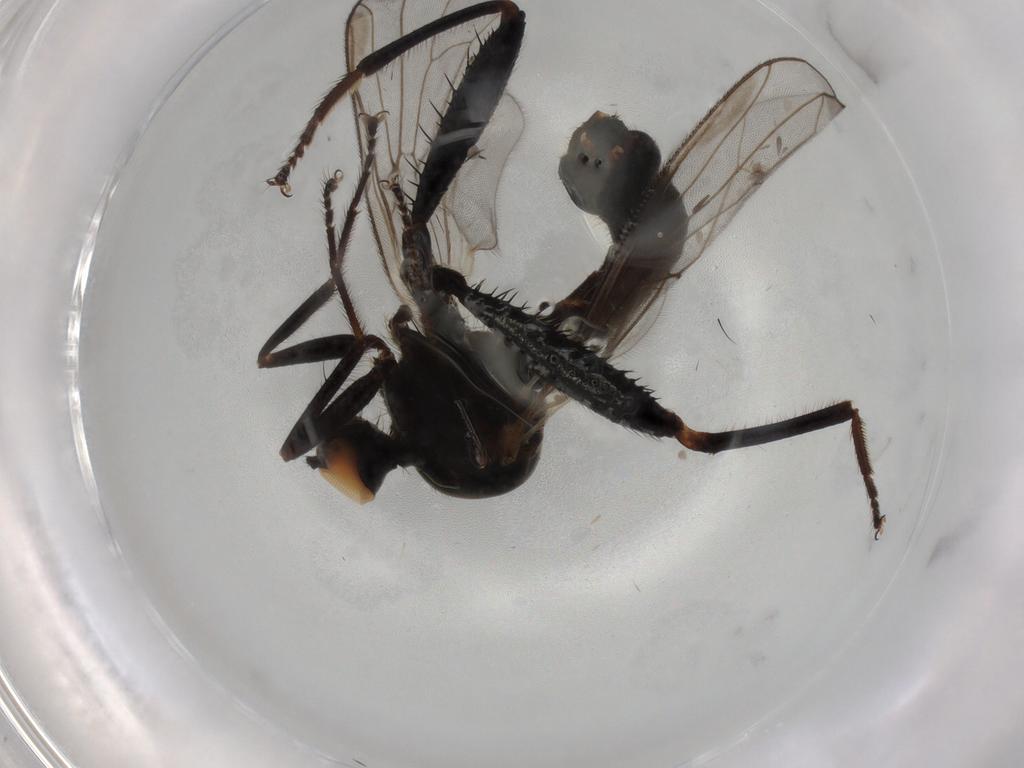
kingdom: Animalia
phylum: Arthropoda
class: Insecta
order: Diptera
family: Hybotidae
